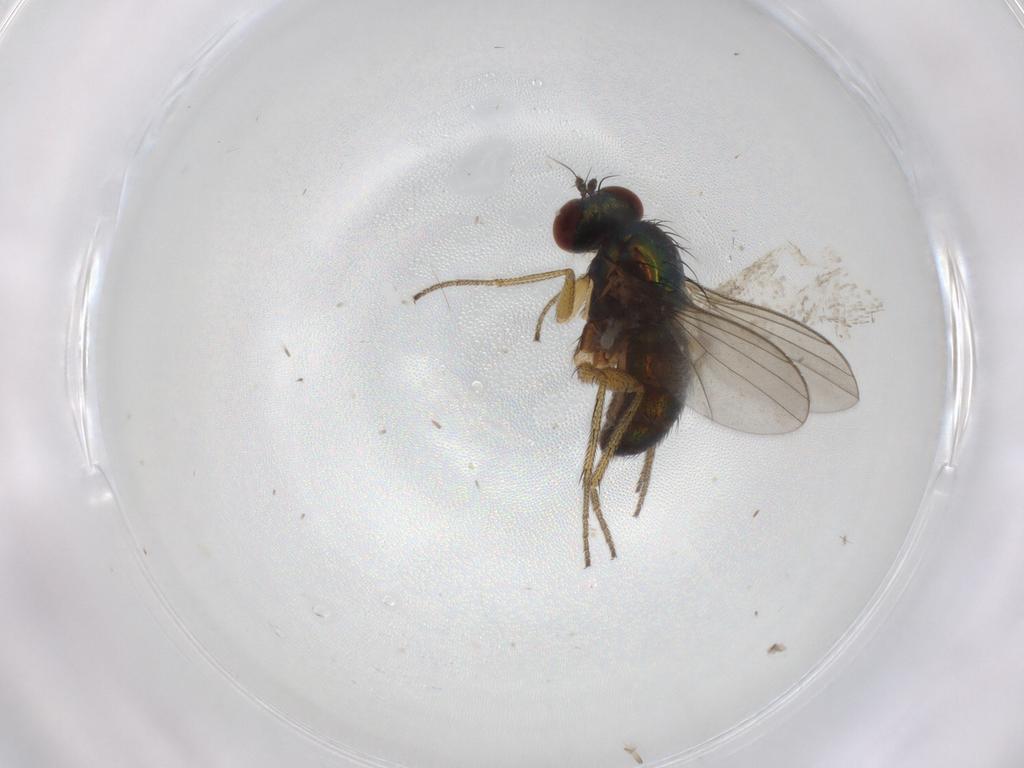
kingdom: Animalia
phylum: Arthropoda
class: Insecta
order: Diptera
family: Chironomidae
